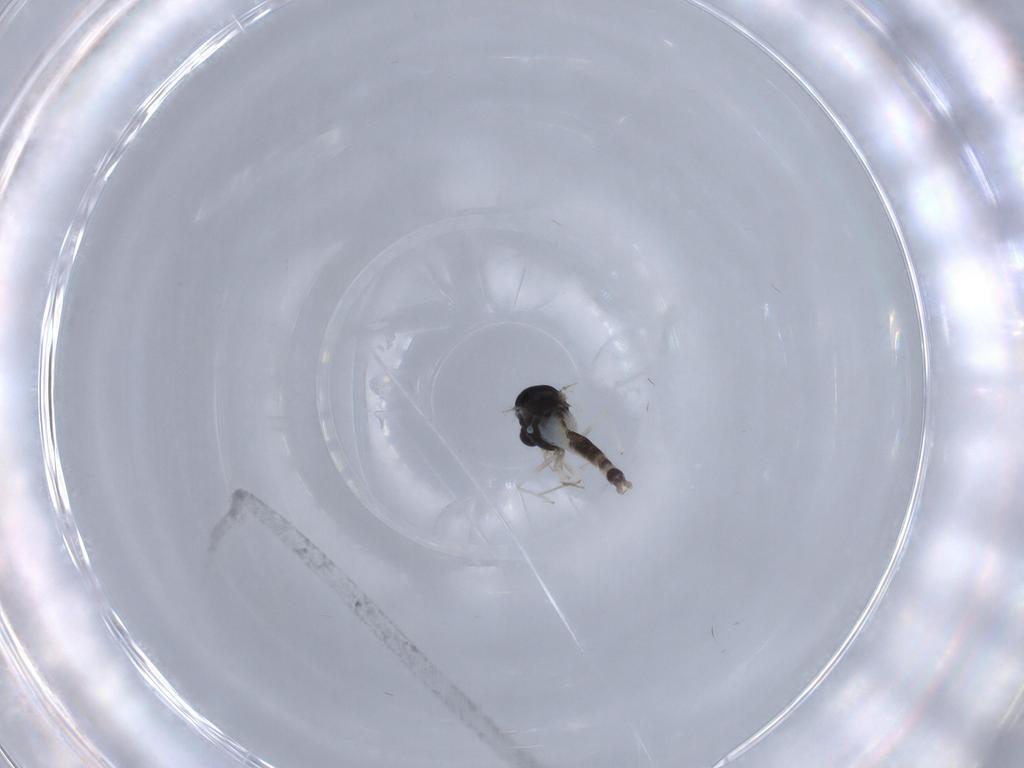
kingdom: Animalia
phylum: Arthropoda
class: Insecta
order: Diptera
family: Chironomidae
